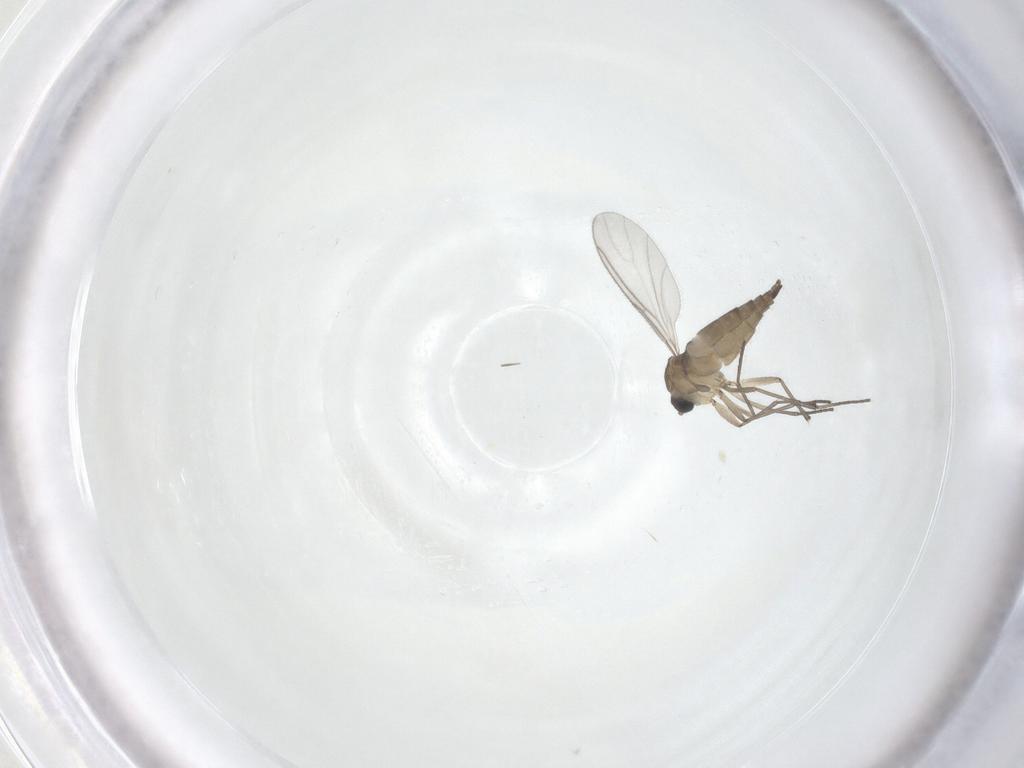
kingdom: Animalia
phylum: Arthropoda
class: Insecta
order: Diptera
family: Sciaridae
